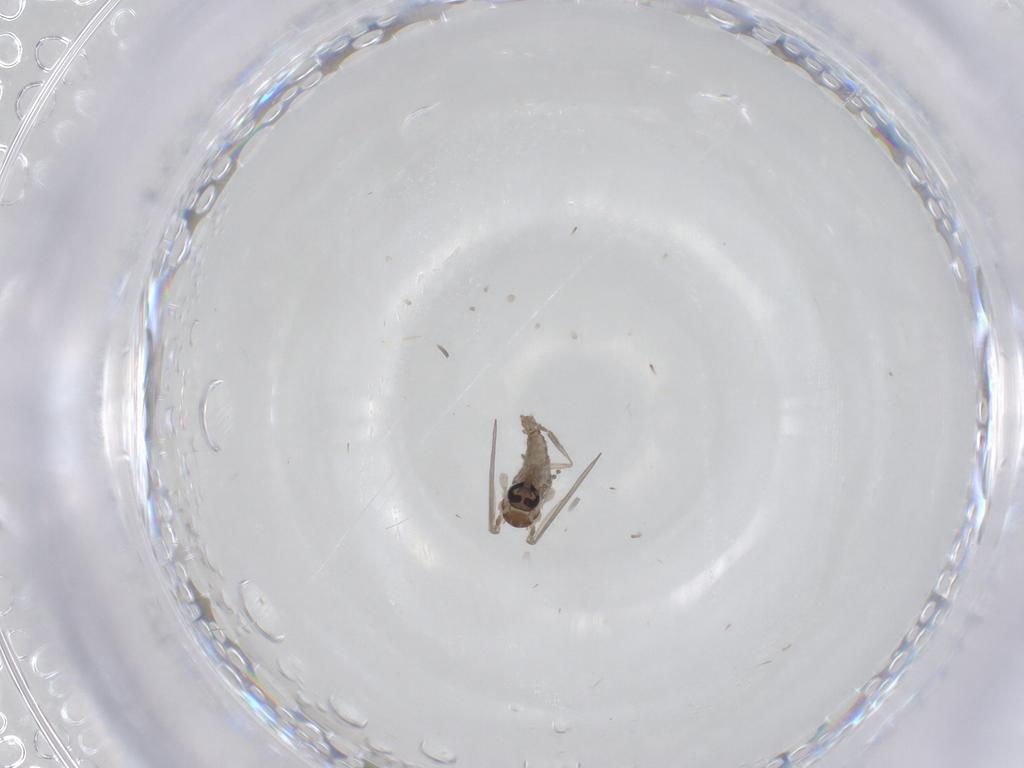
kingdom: Animalia
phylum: Arthropoda
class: Insecta
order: Diptera
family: Psychodidae
